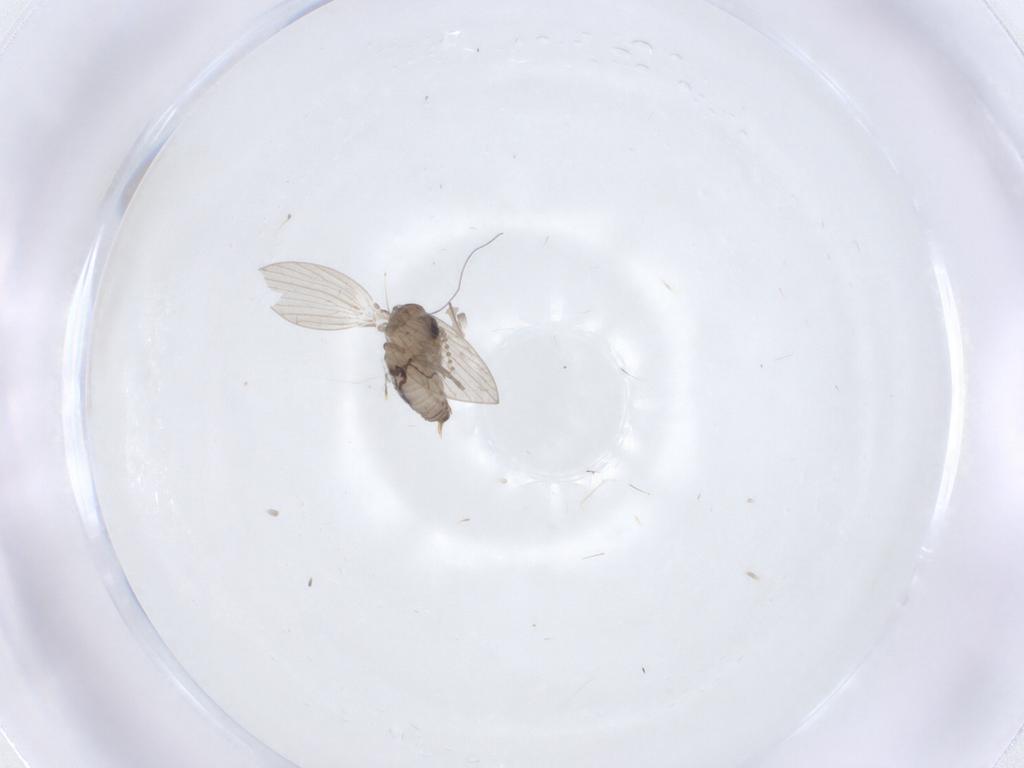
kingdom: Animalia
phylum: Arthropoda
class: Insecta
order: Diptera
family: Psychodidae
